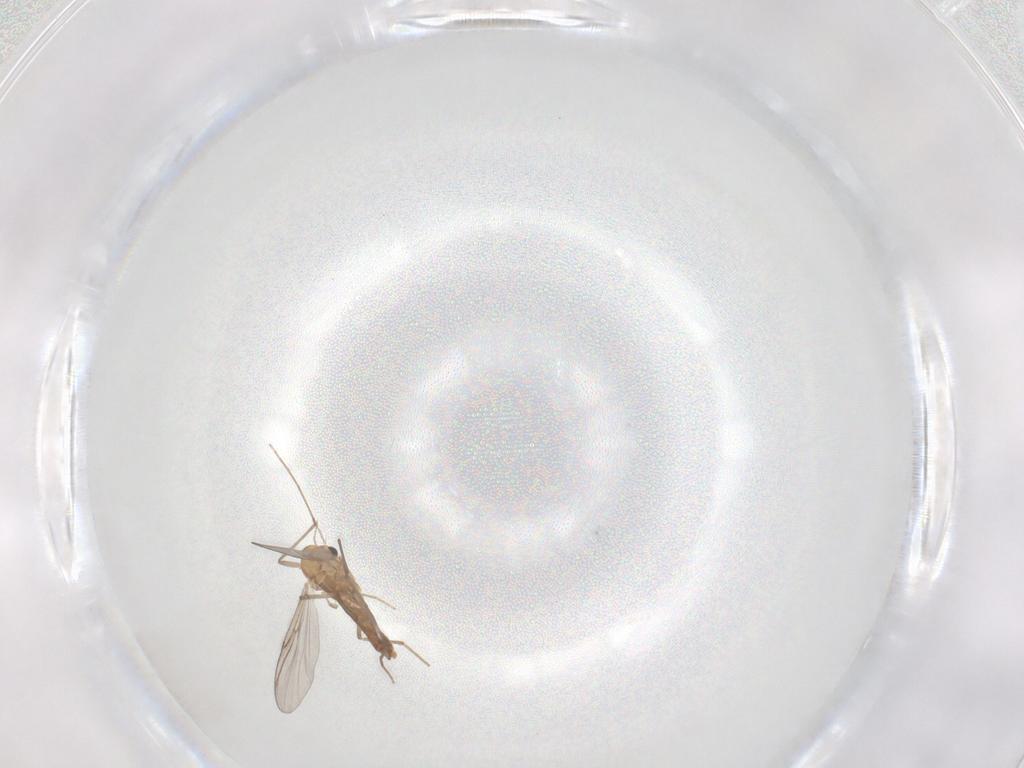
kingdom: Animalia
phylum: Arthropoda
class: Insecta
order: Diptera
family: Chironomidae
